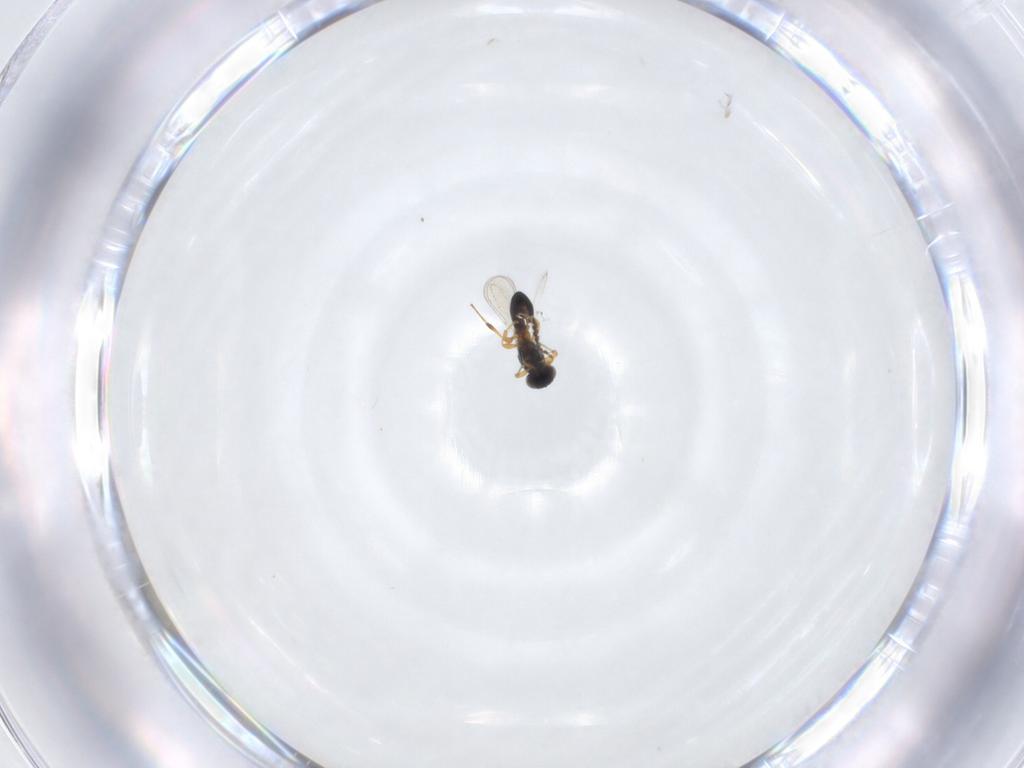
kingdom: Animalia
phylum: Arthropoda
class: Insecta
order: Hymenoptera
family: Platygastridae
